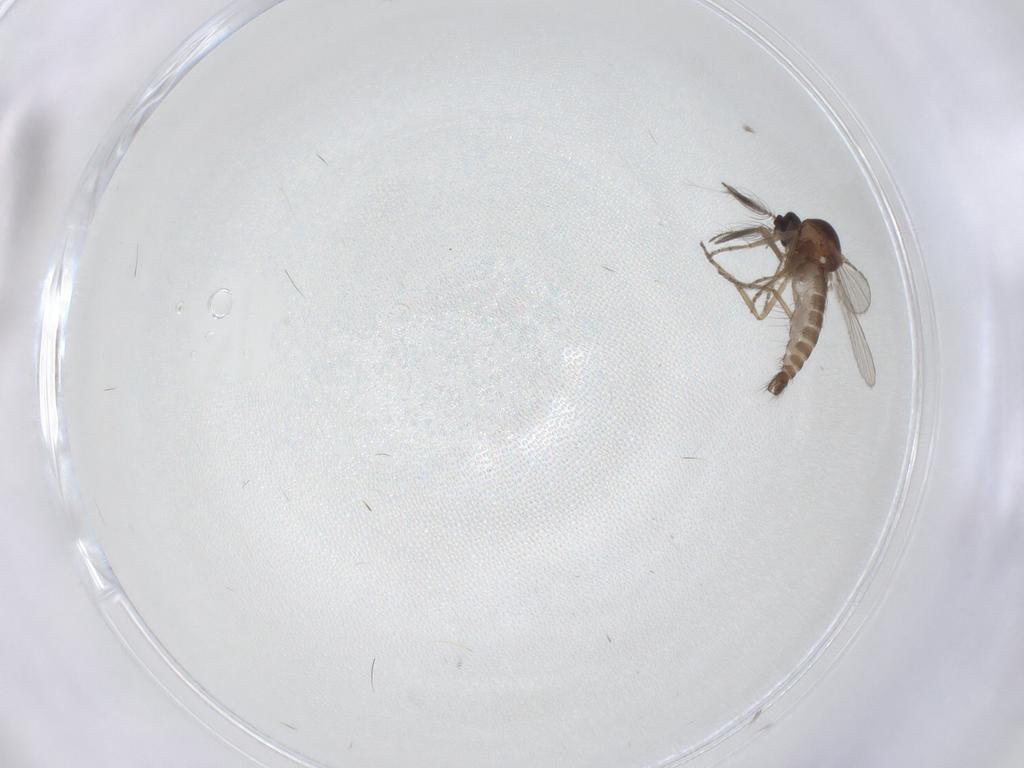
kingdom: Animalia
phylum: Arthropoda
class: Insecta
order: Diptera
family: Ceratopogonidae
